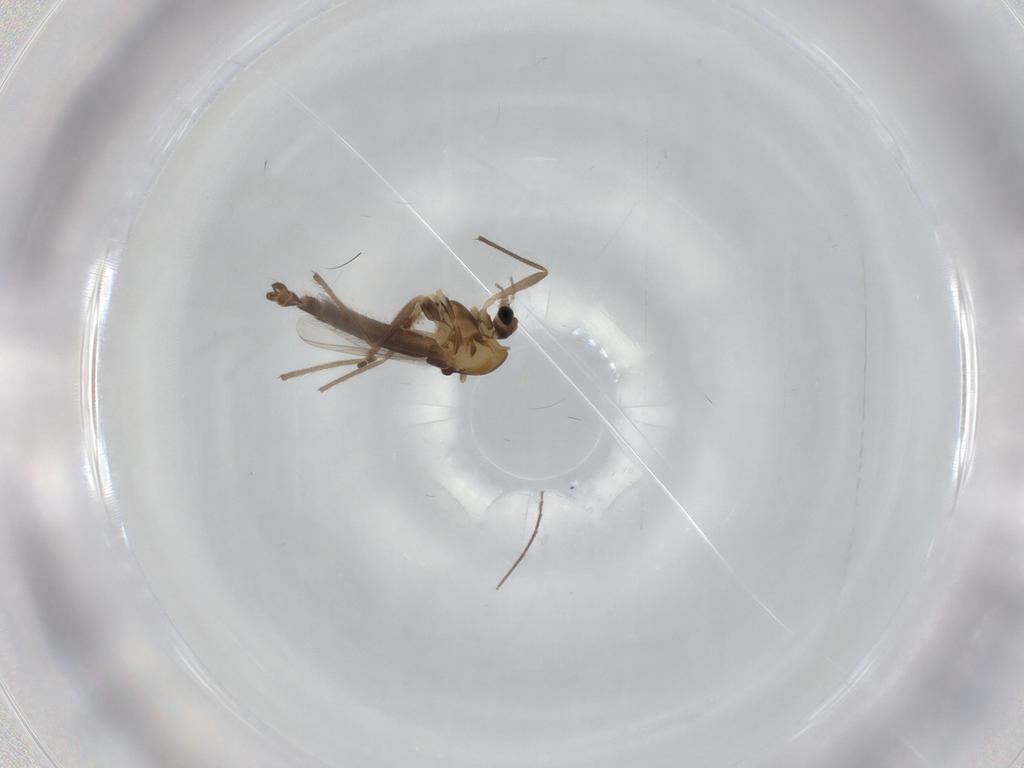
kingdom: Animalia
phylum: Arthropoda
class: Insecta
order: Diptera
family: Chironomidae
